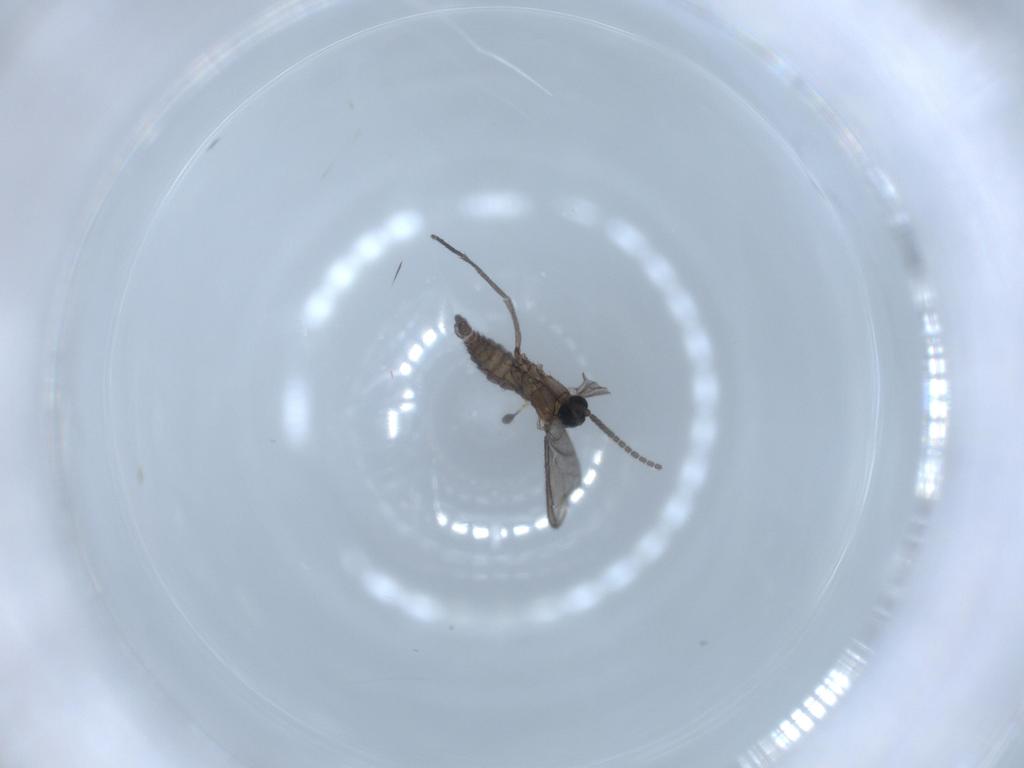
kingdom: Animalia
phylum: Arthropoda
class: Insecta
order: Diptera
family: Sciaridae
